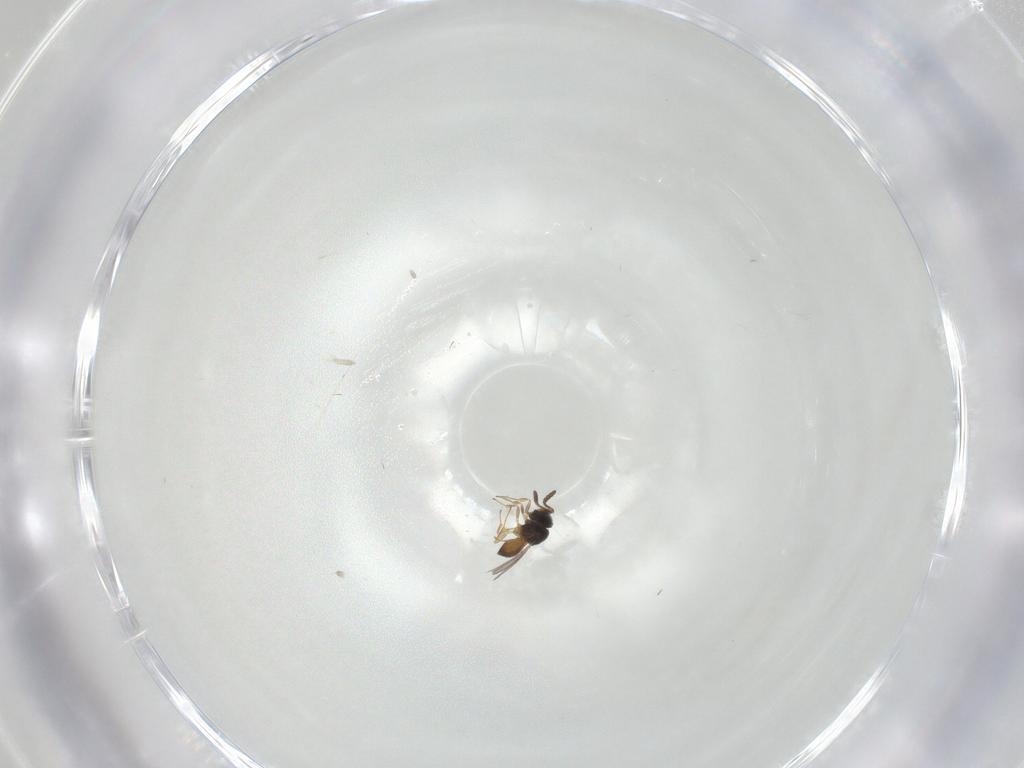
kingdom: Animalia
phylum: Arthropoda
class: Insecta
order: Hymenoptera
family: Scelionidae
